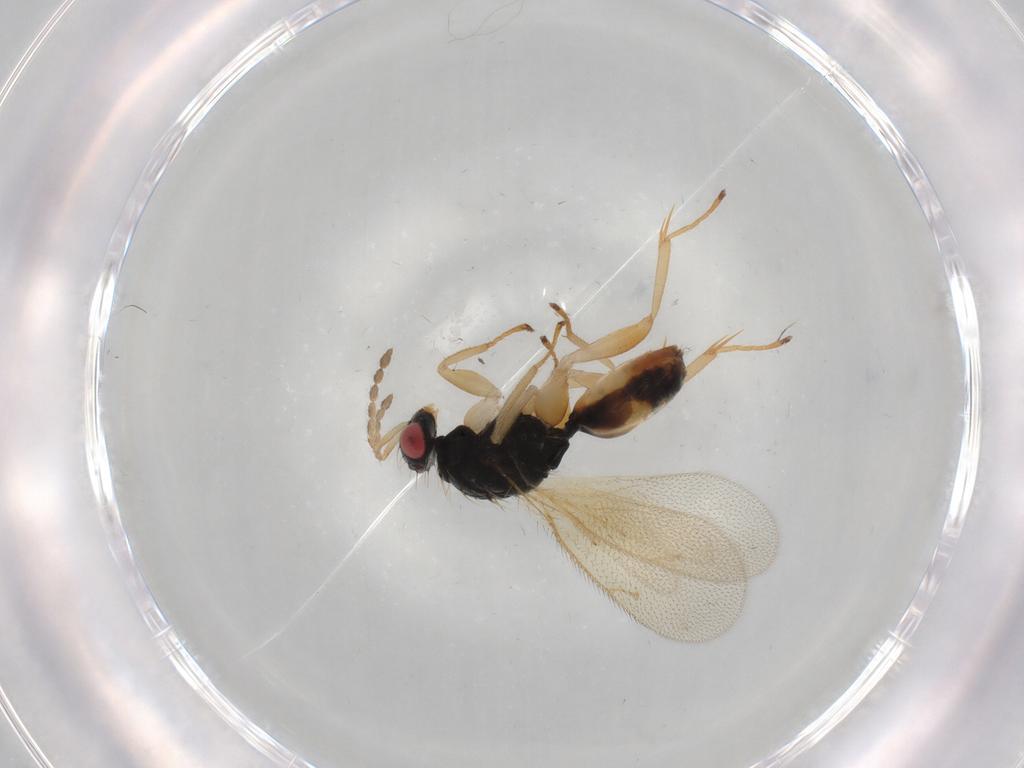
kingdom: Animalia
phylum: Arthropoda
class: Insecta
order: Hymenoptera
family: Eulophidae
